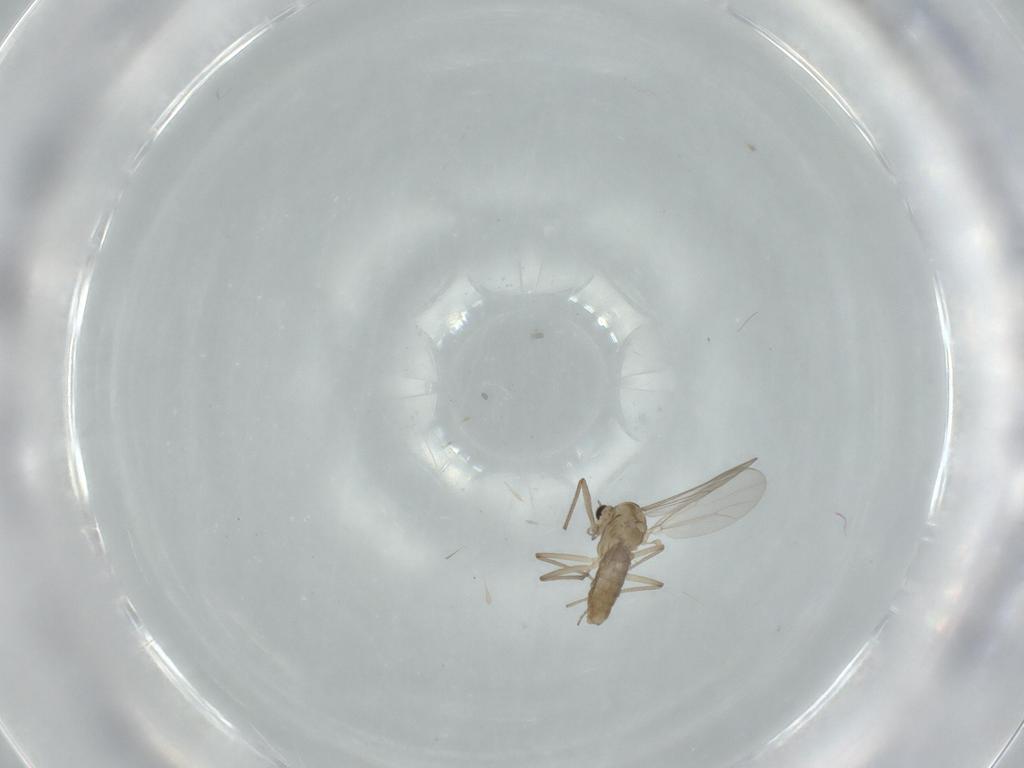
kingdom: Animalia
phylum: Arthropoda
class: Insecta
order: Diptera
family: Chironomidae
